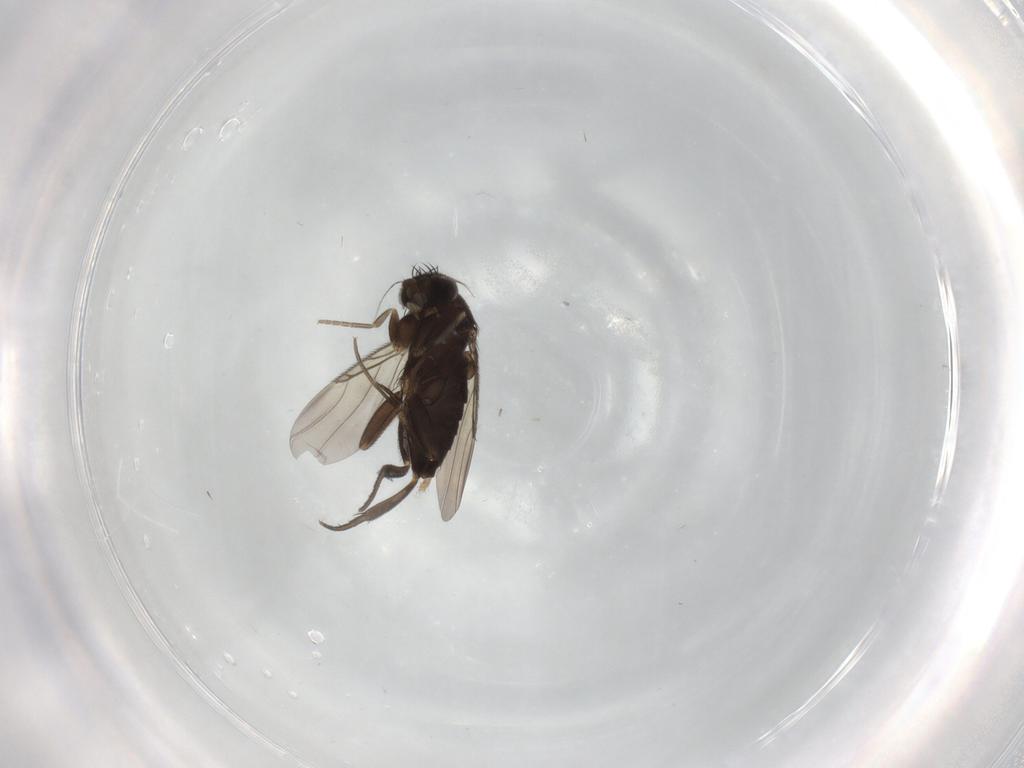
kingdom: Animalia
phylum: Arthropoda
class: Insecta
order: Diptera
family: Phoridae
